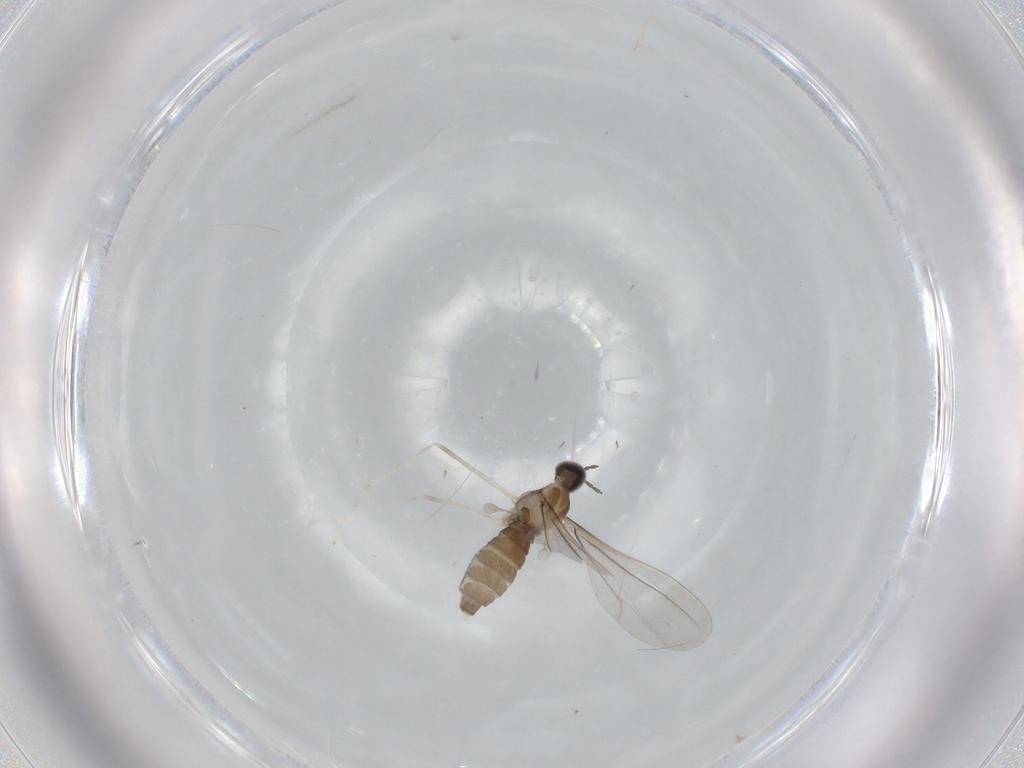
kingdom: Animalia
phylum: Arthropoda
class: Insecta
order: Diptera
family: Cecidomyiidae
